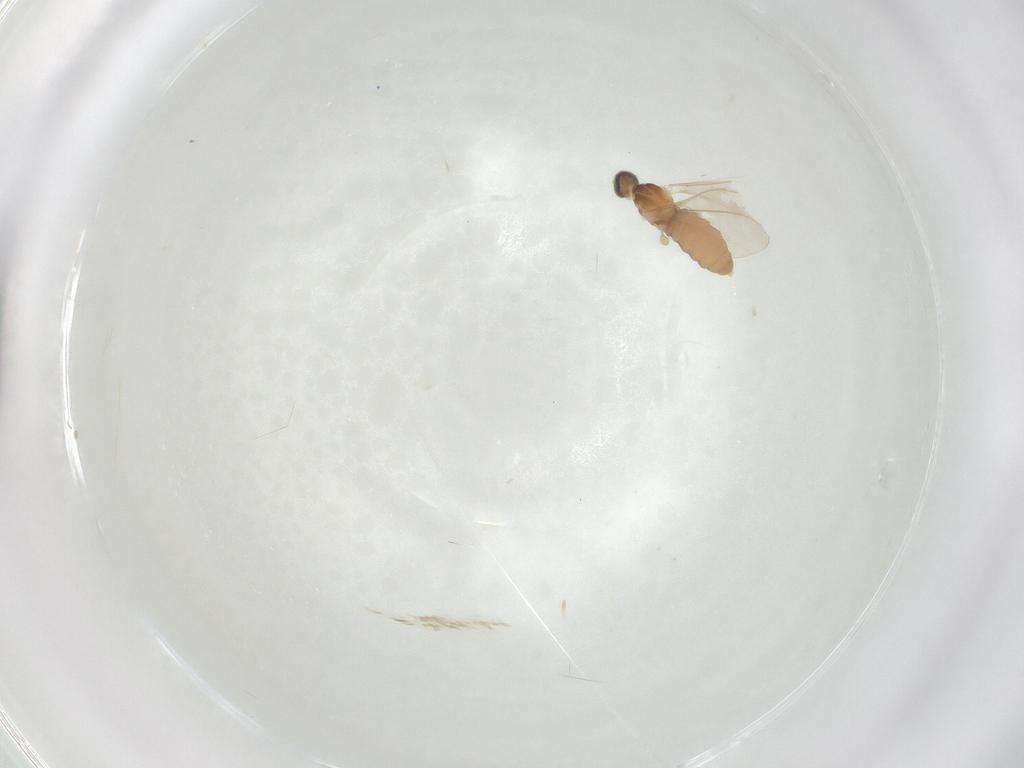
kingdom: Animalia
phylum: Arthropoda
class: Insecta
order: Diptera
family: Cecidomyiidae
